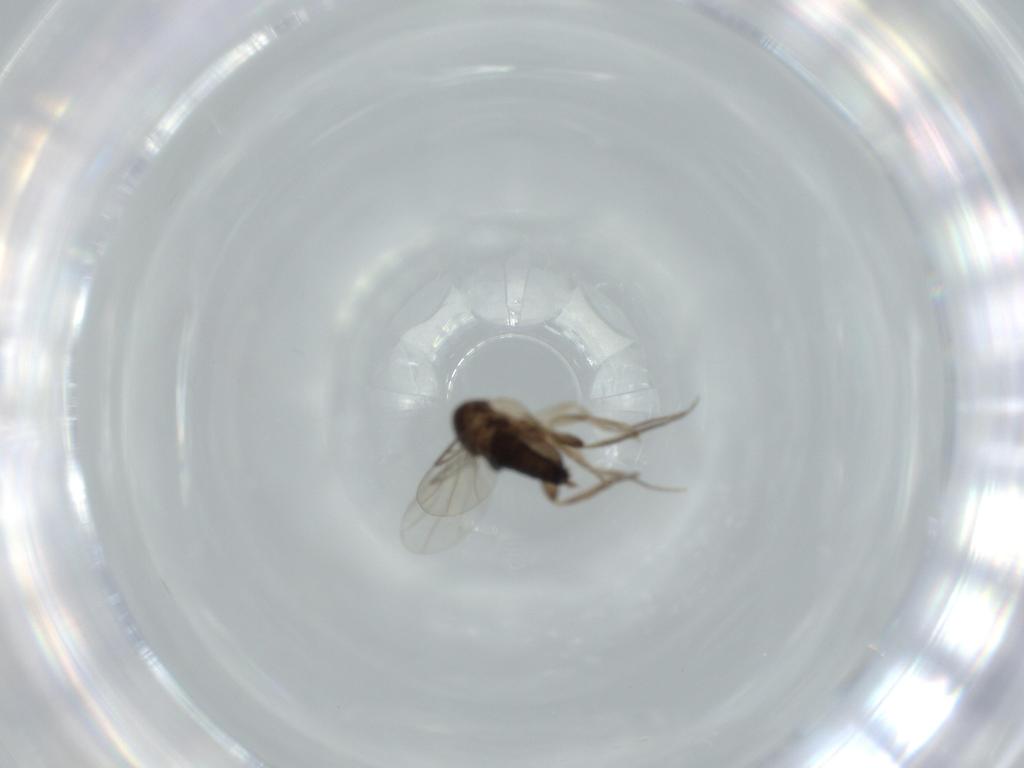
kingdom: Animalia
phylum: Arthropoda
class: Insecta
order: Diptera
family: Phoridae
